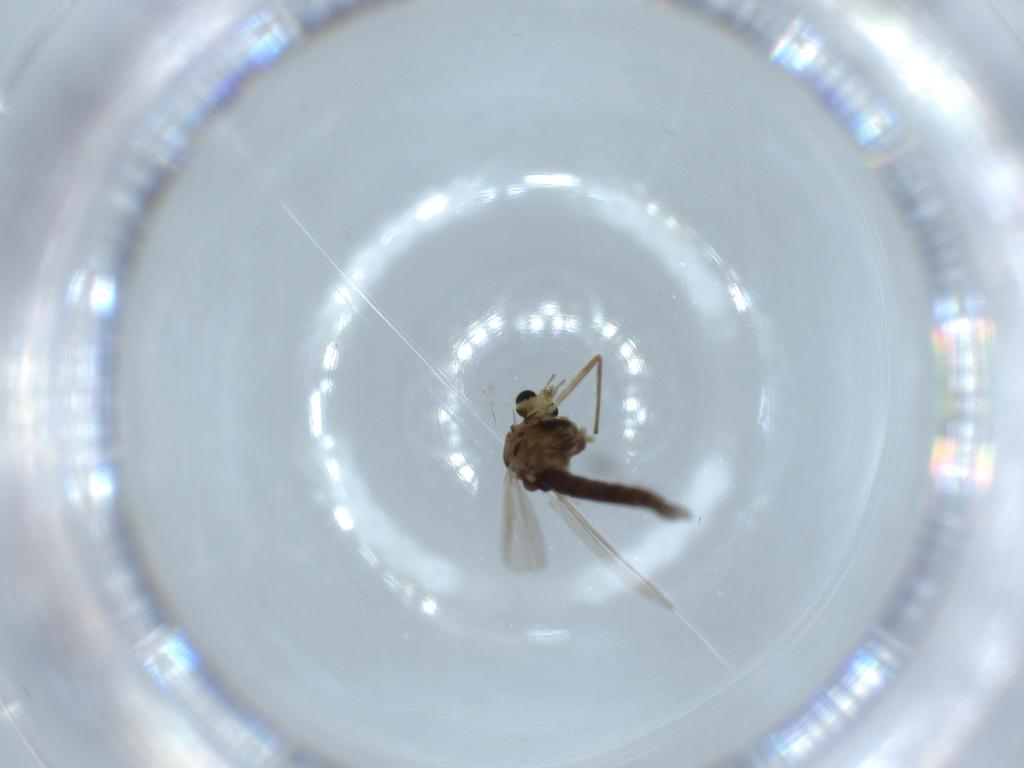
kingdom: Animalia
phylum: Arthropoda
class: Insecta
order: Diptera
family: Chironomidae
